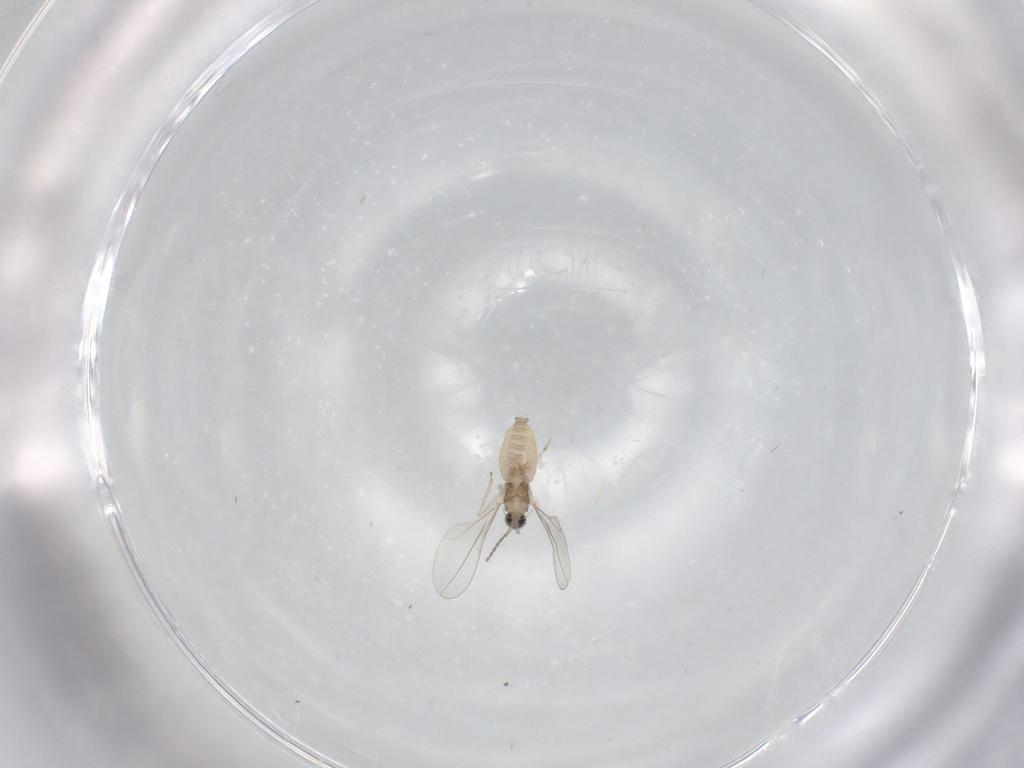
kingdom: Animalia
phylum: Arthropoda
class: Insecta
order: Diptera
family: Cecidomyiidae
